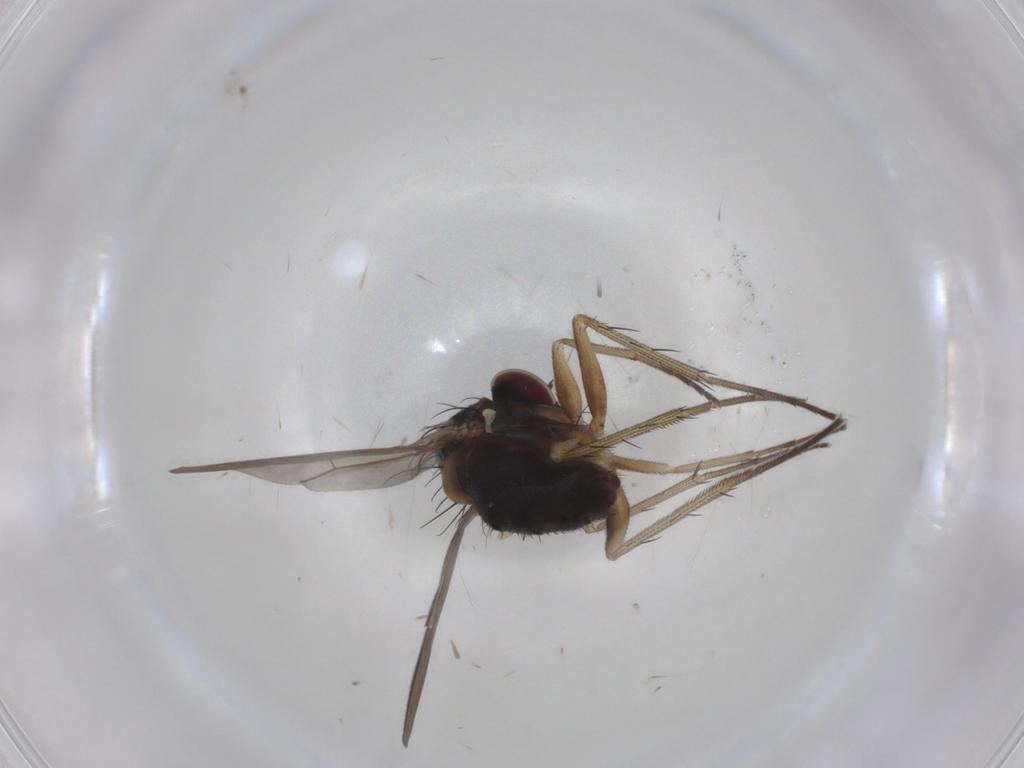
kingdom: Animalia
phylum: Arthropoda
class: Insecta
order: Diptera
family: Dolichopodidae
